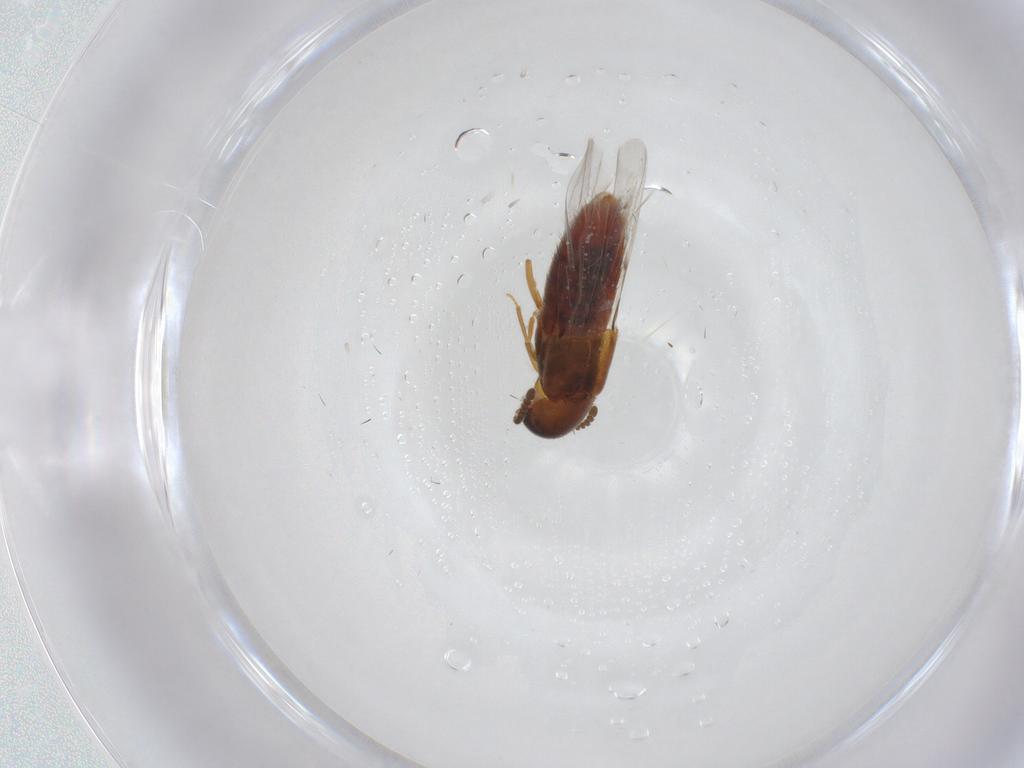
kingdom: Animalia
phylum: Arthropoda
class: Insecta
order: Coleoptera
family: Staphylinidae
